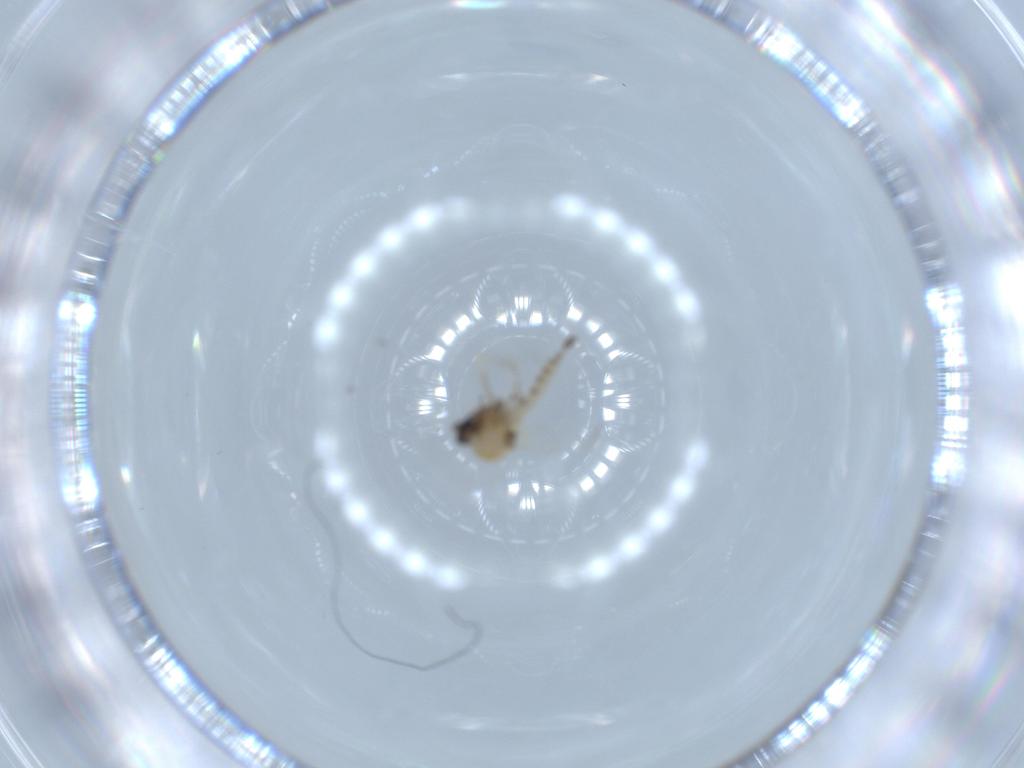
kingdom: Animalia
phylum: Arthropoda
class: Insecta
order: Diptera
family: Ceratopogonidae
